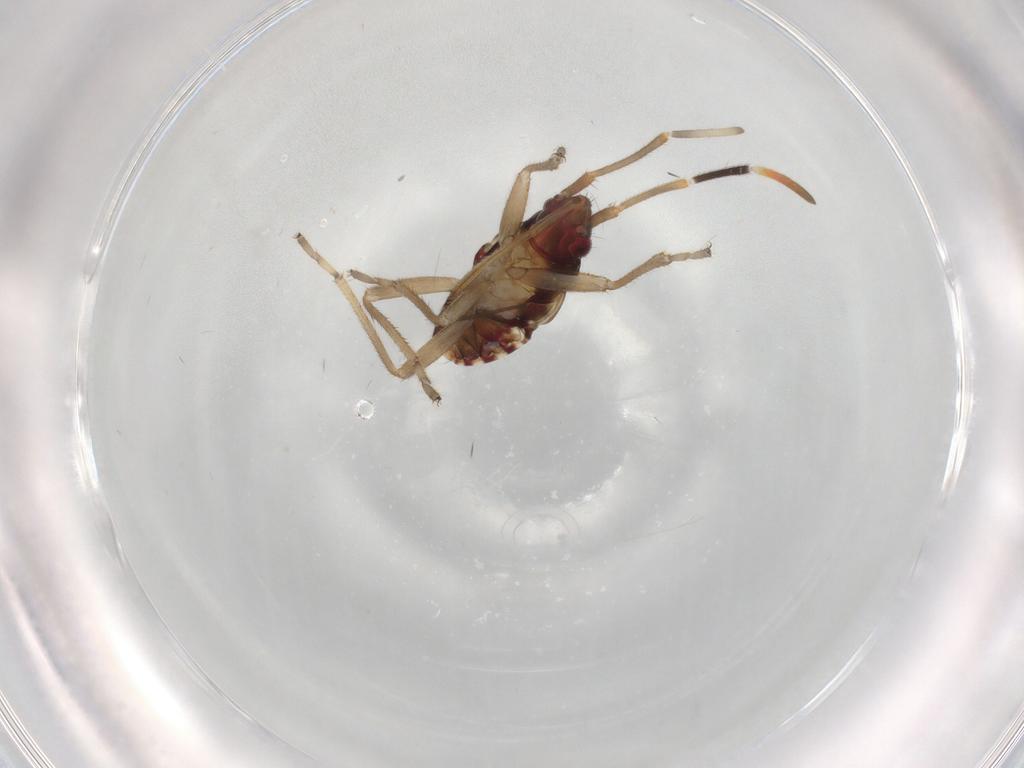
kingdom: Animalia
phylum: Arthropoda
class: Insecta
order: Hemiptera
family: Rhyparochromidae
